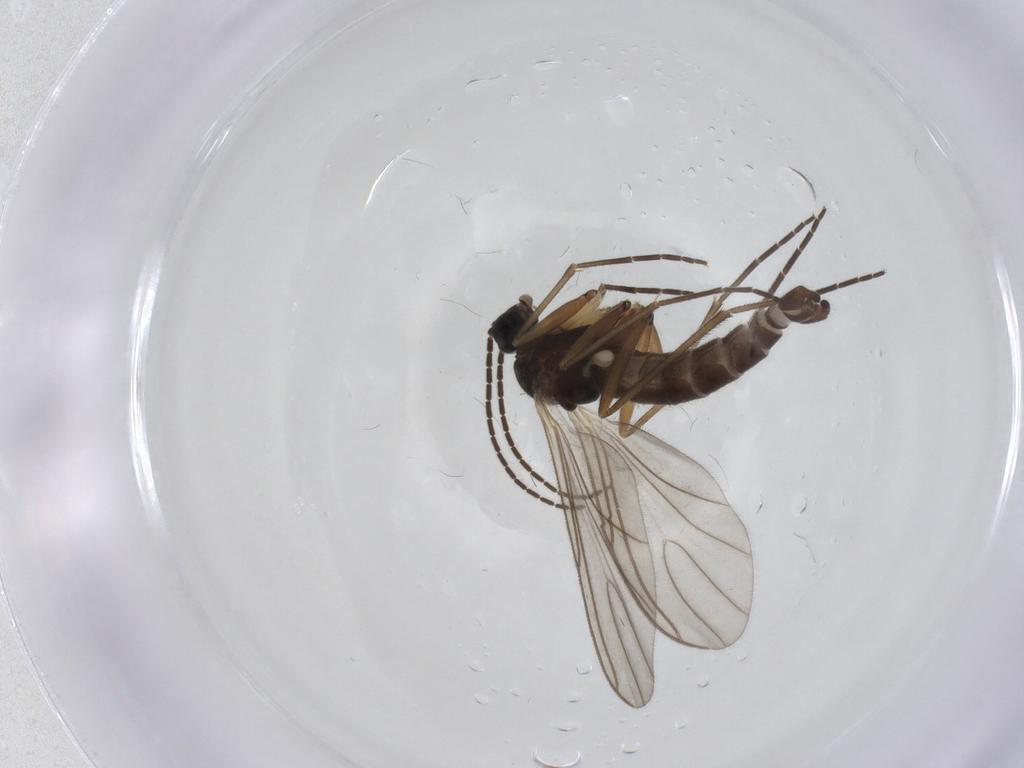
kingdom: Animalia
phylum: Arthropoda
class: Insecta
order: Diptera
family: Sciaridae
